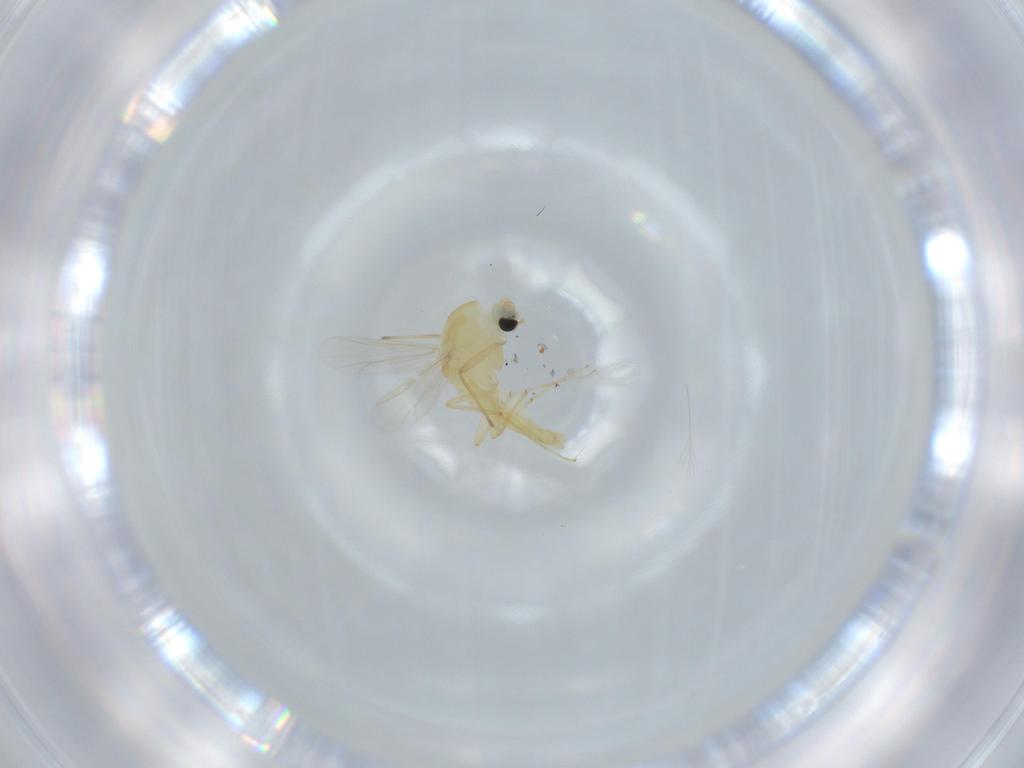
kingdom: Animalia
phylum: Arthropoda
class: Insecta
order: Diptera
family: Chironomidae
